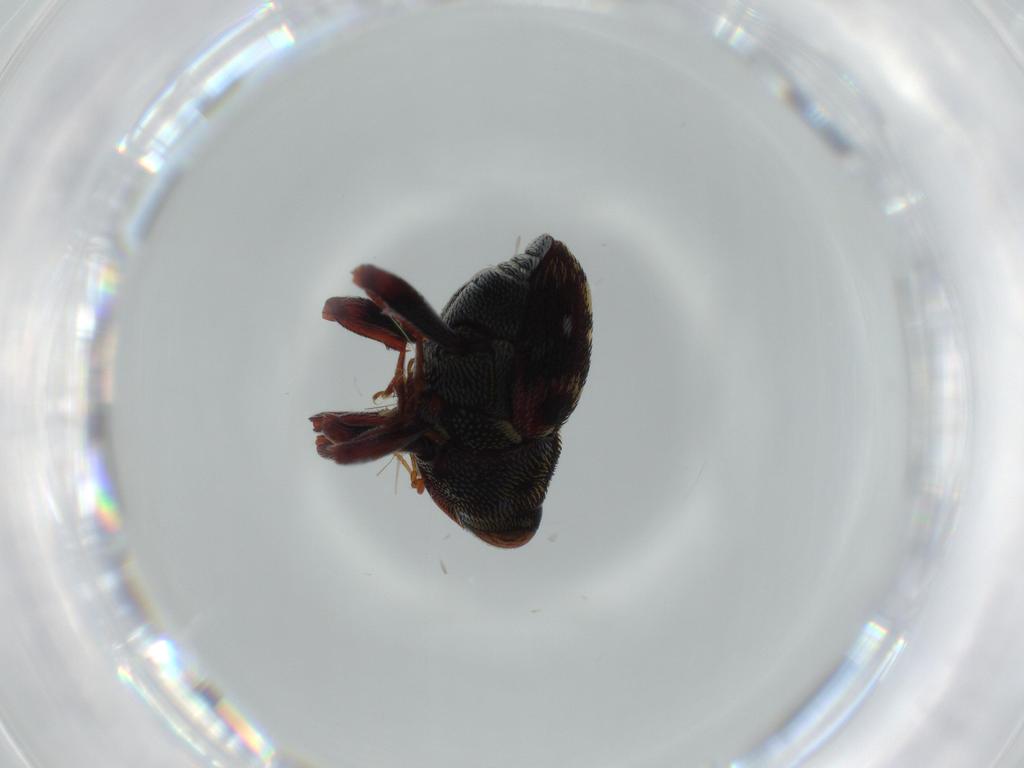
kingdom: Animalia
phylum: Arthropoda
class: Insecta
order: Coleoptera
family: Curculionidae
